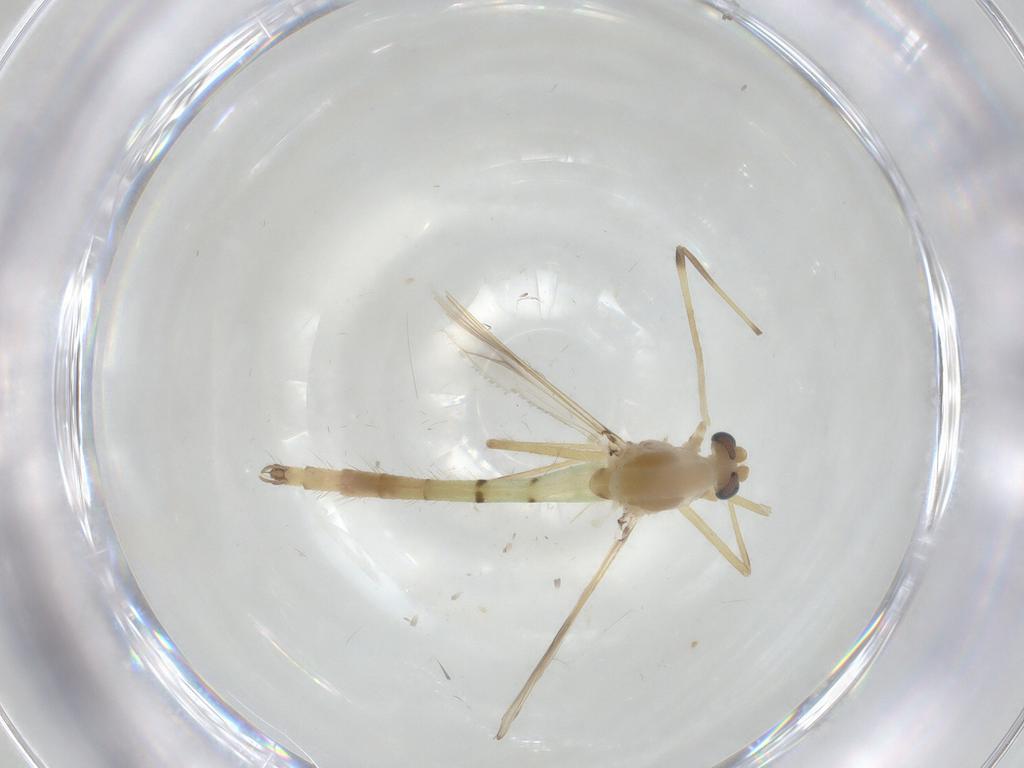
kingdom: Animalia
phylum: Arthropoda
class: Insecta
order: Diptera
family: Chironomidae
